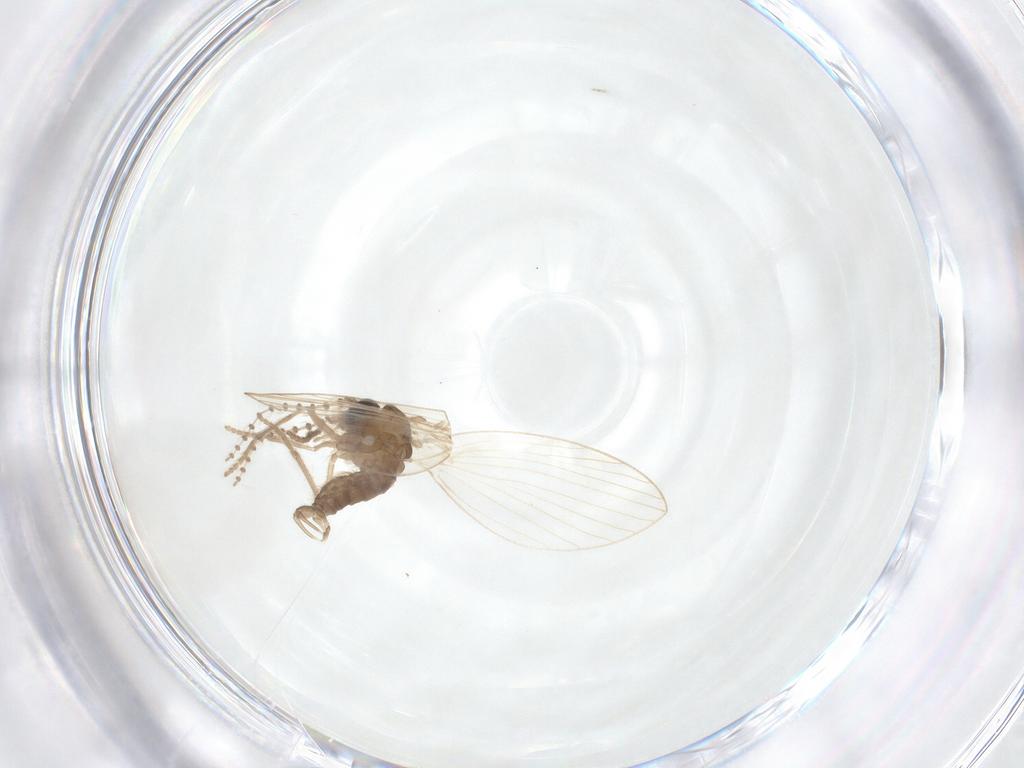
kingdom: Animalia
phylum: Arthropoda
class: Insecta
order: Diptera
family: Psychodidae
